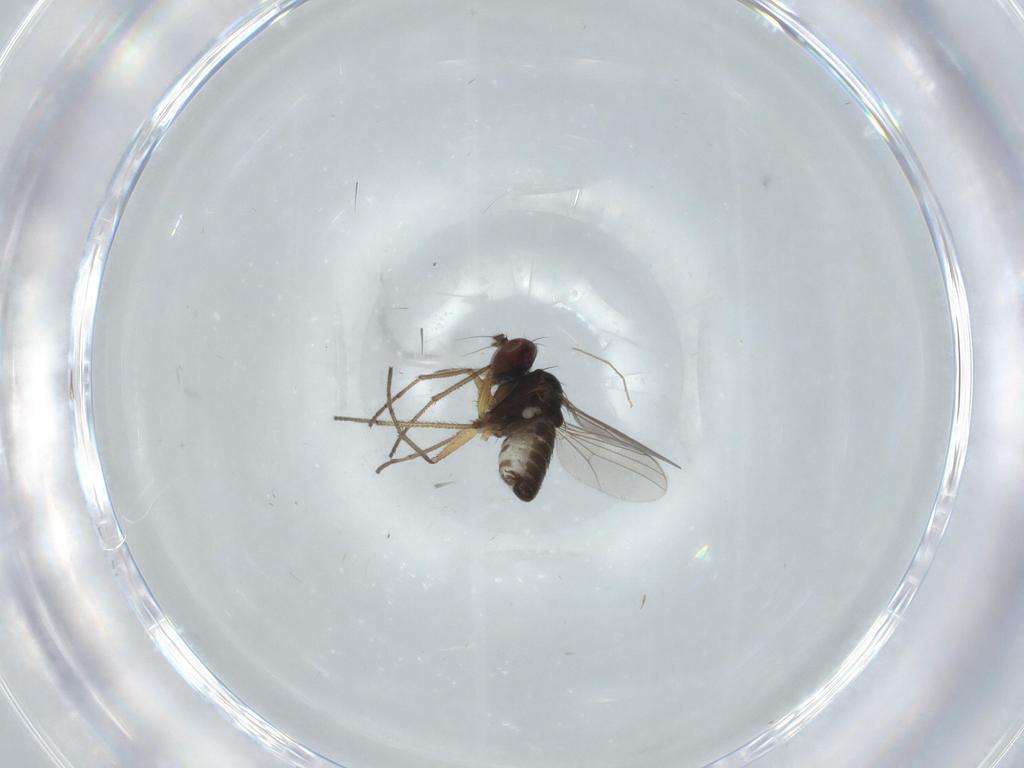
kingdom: Animalia
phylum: Arthropoda
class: Insecta
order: Diptera
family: Dolichopodidae
